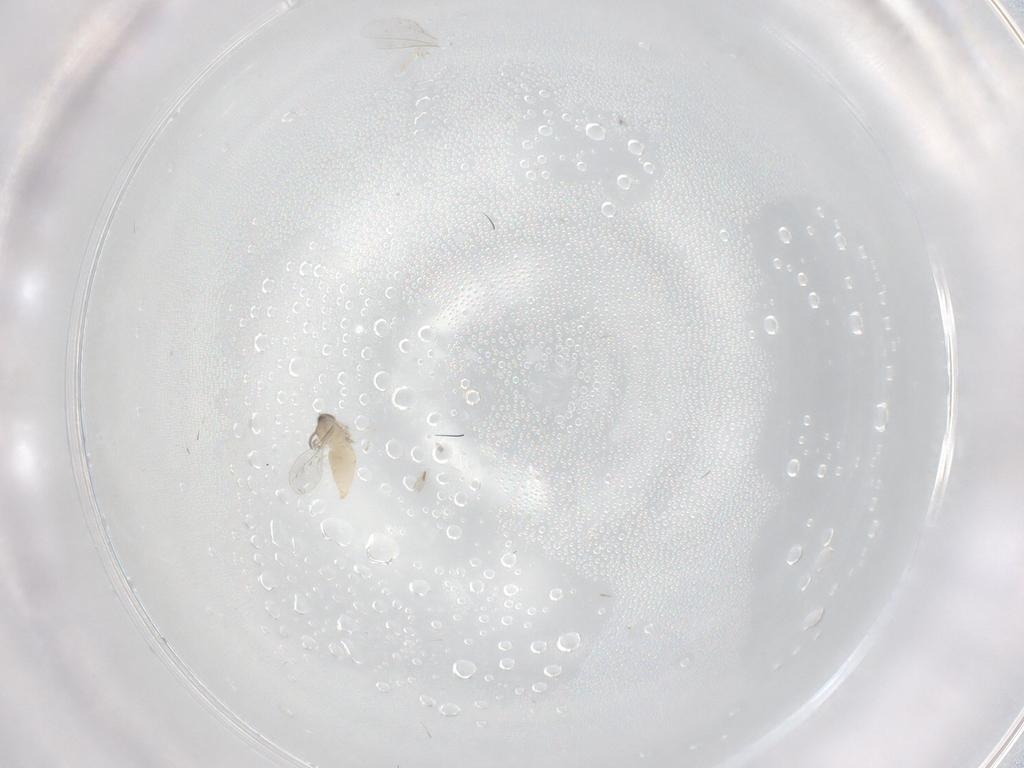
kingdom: Animalia
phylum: Arthropoda
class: Insecta
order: Diptera
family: Cecidomyiidae
